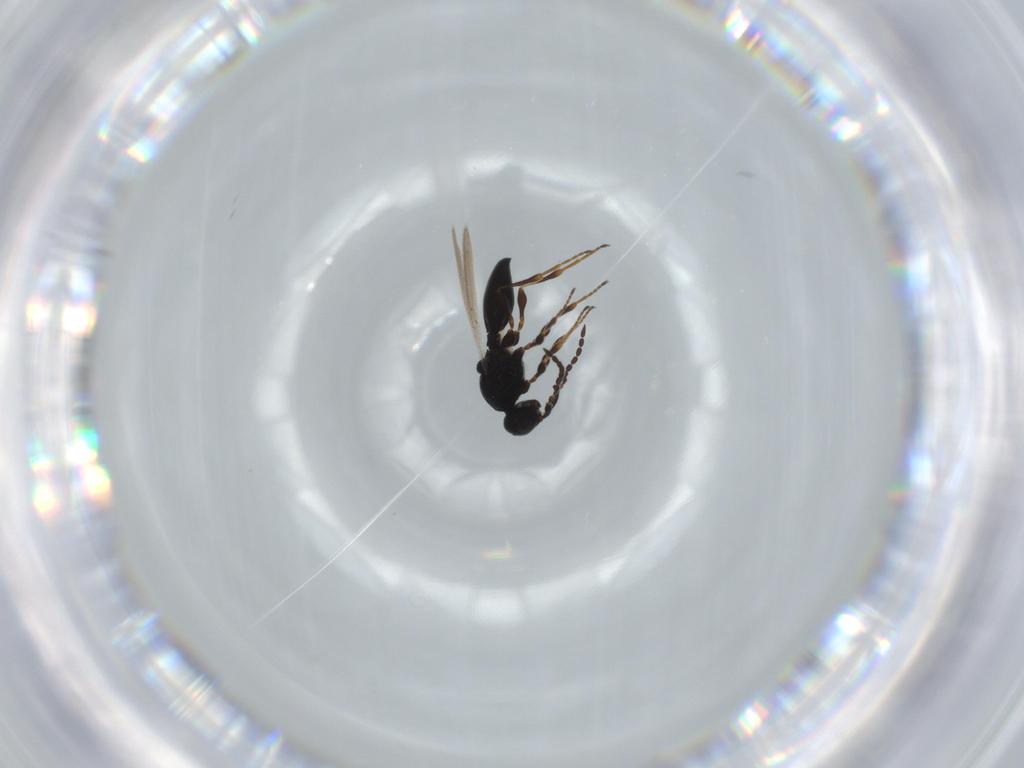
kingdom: Animalia
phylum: Arthropoda
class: Insecta
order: Hymenoptera
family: Platygastridae
